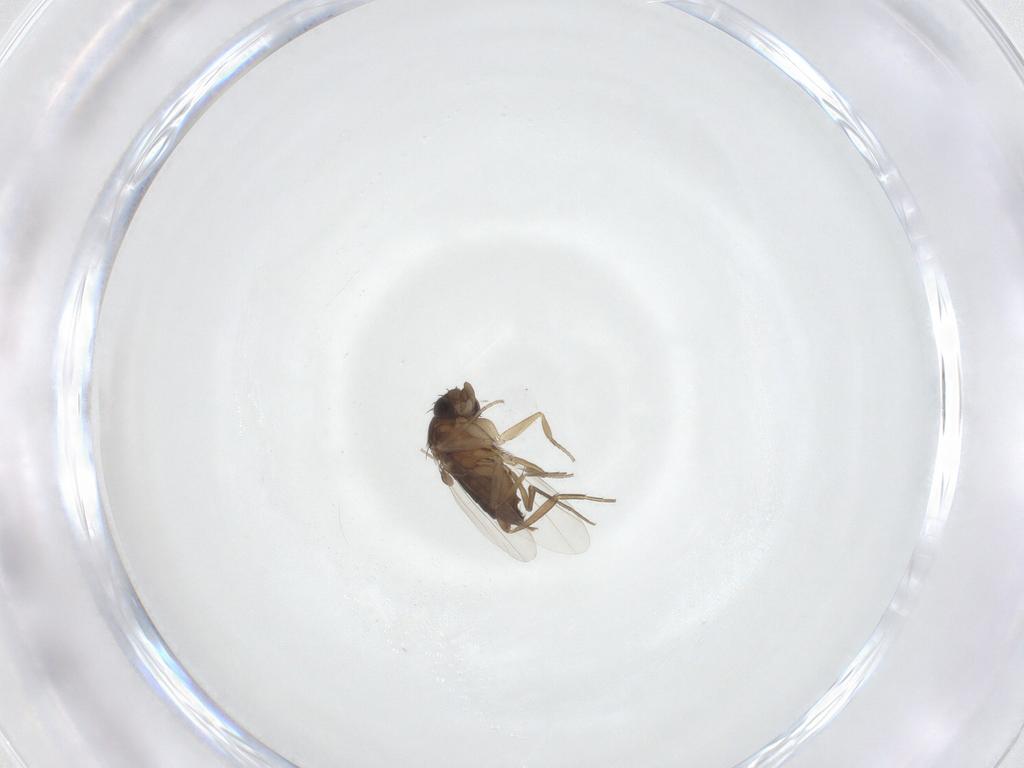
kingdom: Animalia
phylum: Arthropoda
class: Insecta
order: Diptera
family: Phoridae
